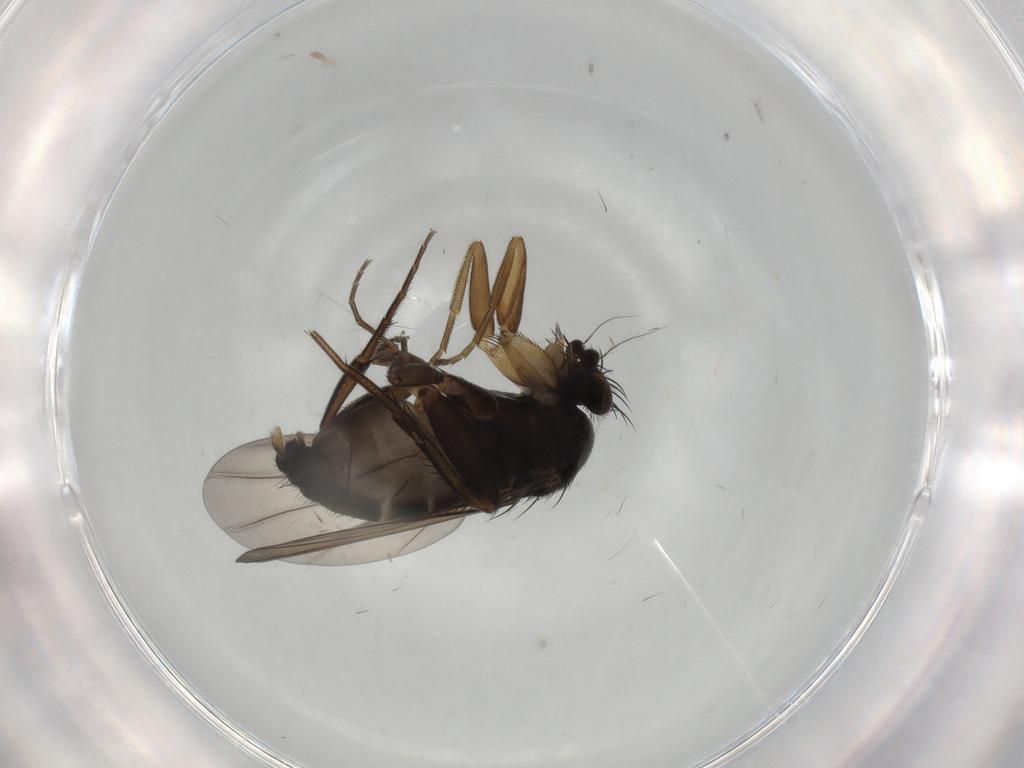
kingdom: Animalia
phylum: Arthropoda
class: Insecta
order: Diptera
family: Phoridae
